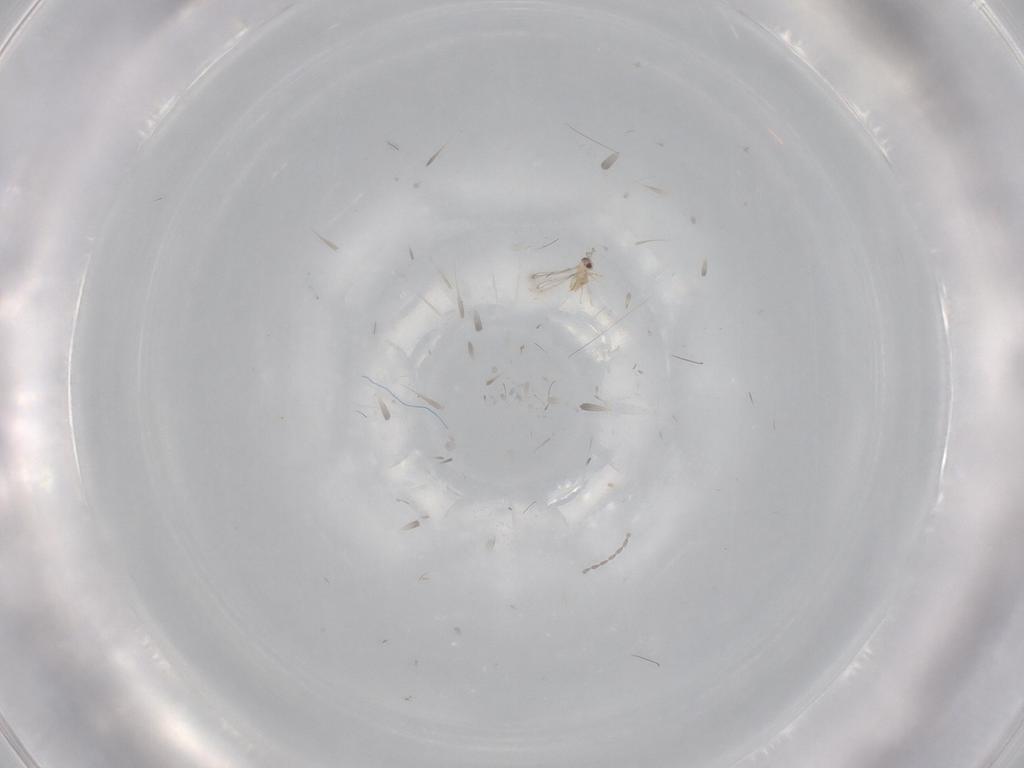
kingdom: Animalia
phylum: Arthropoda
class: Insecta
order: Diptera
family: Cecidomyiidae
